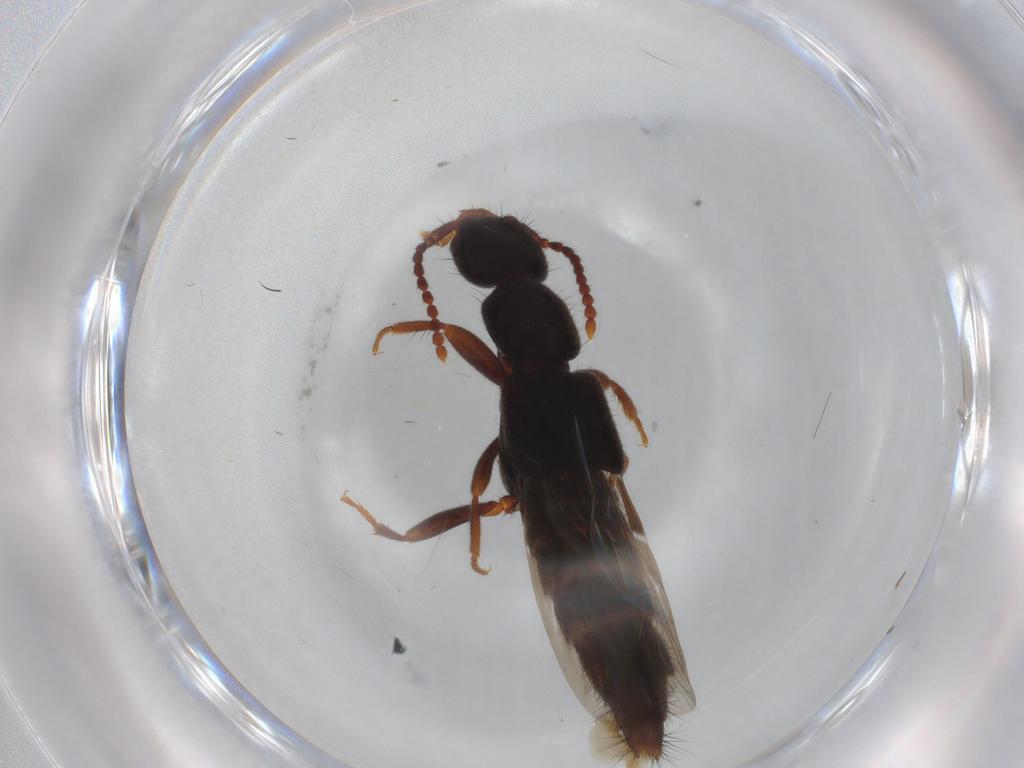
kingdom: Animalia
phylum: Arthropoda
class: Insecta
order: Coleoptera
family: Staphylinidae
